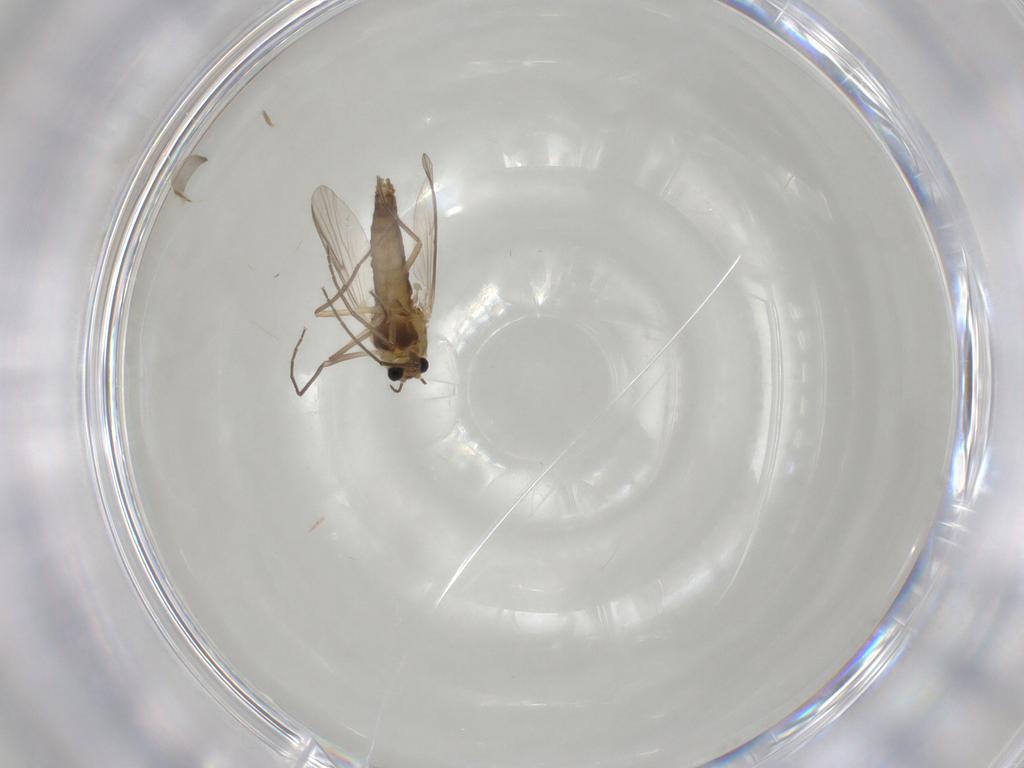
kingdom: Animalia
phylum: Arthropoda
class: Insecta
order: Diptera
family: Chironomidae
